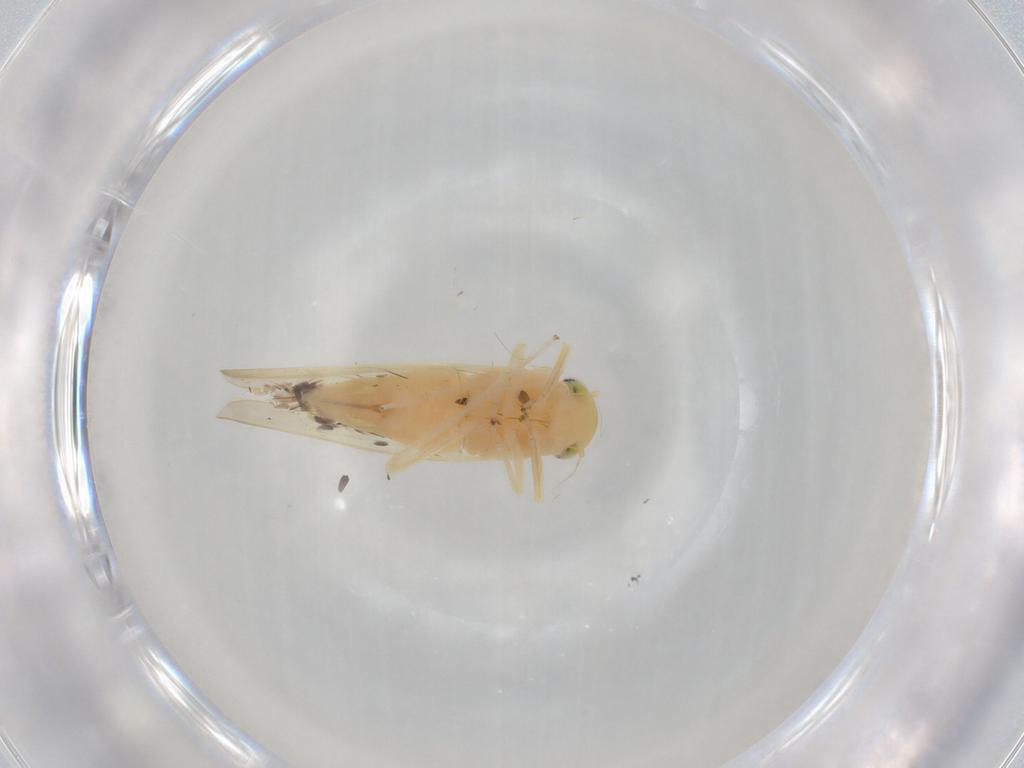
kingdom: Animalia
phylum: Arthropoda
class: Insecta
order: Hemiptera
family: Cicadellidae
